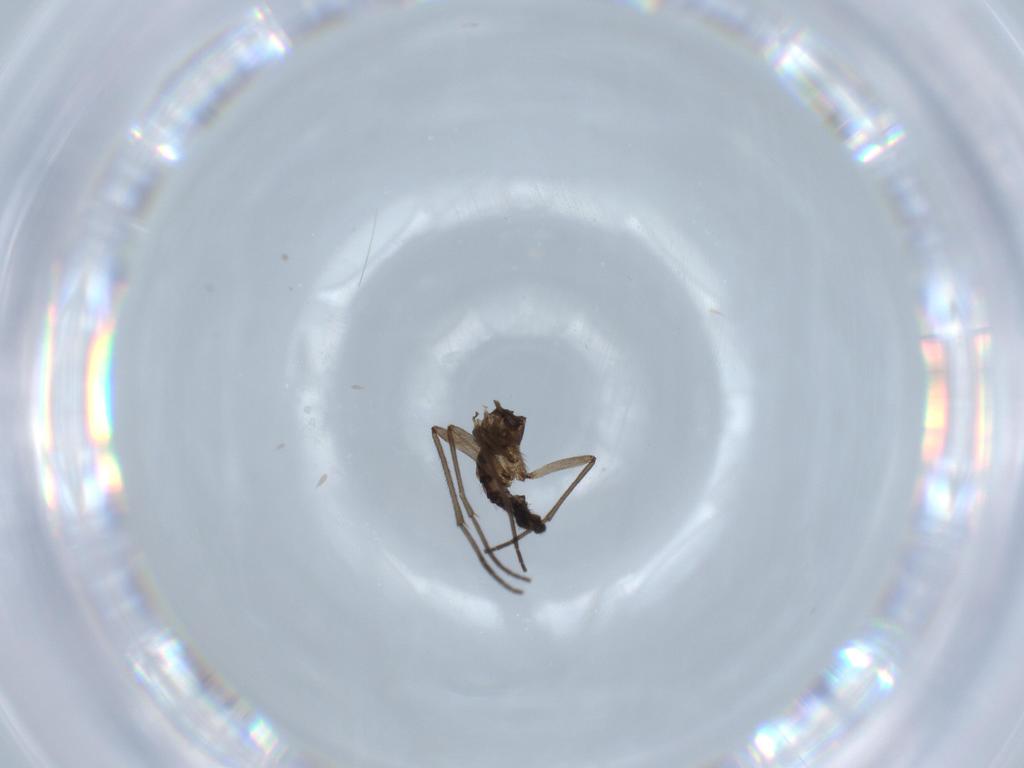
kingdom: Animalia
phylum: Arthropoda
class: Insecta
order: Diptera
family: Sciaridae
